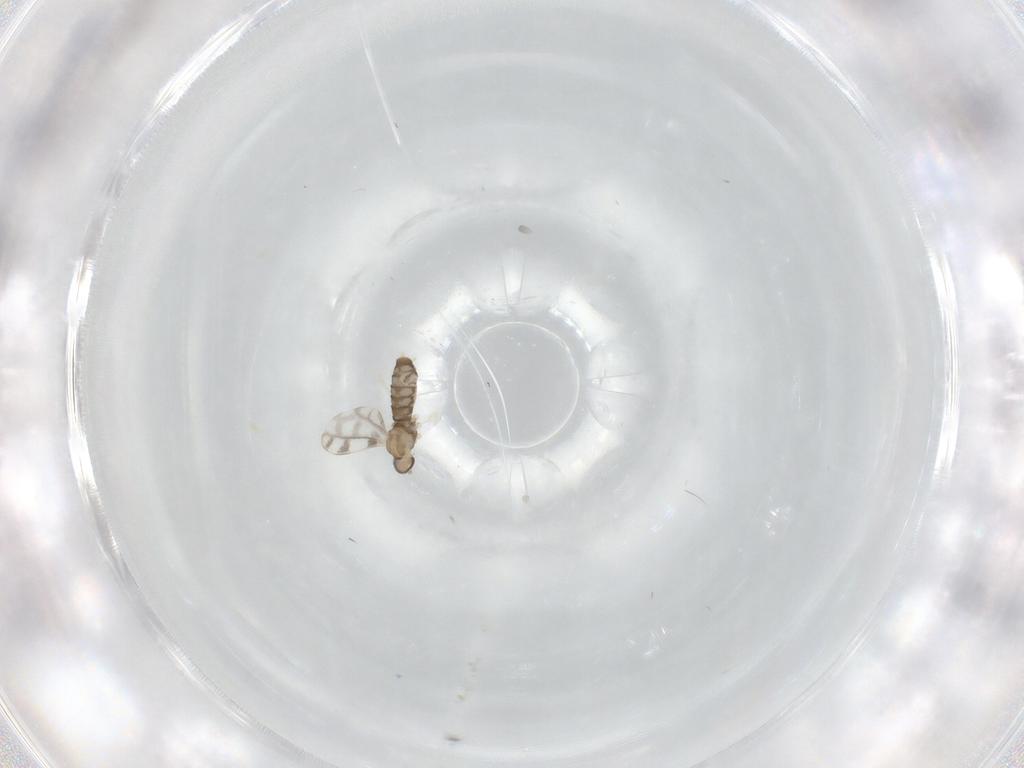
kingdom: Animalia
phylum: Arthropoda
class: Insecta
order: Diptera
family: Cecidomyiidae
